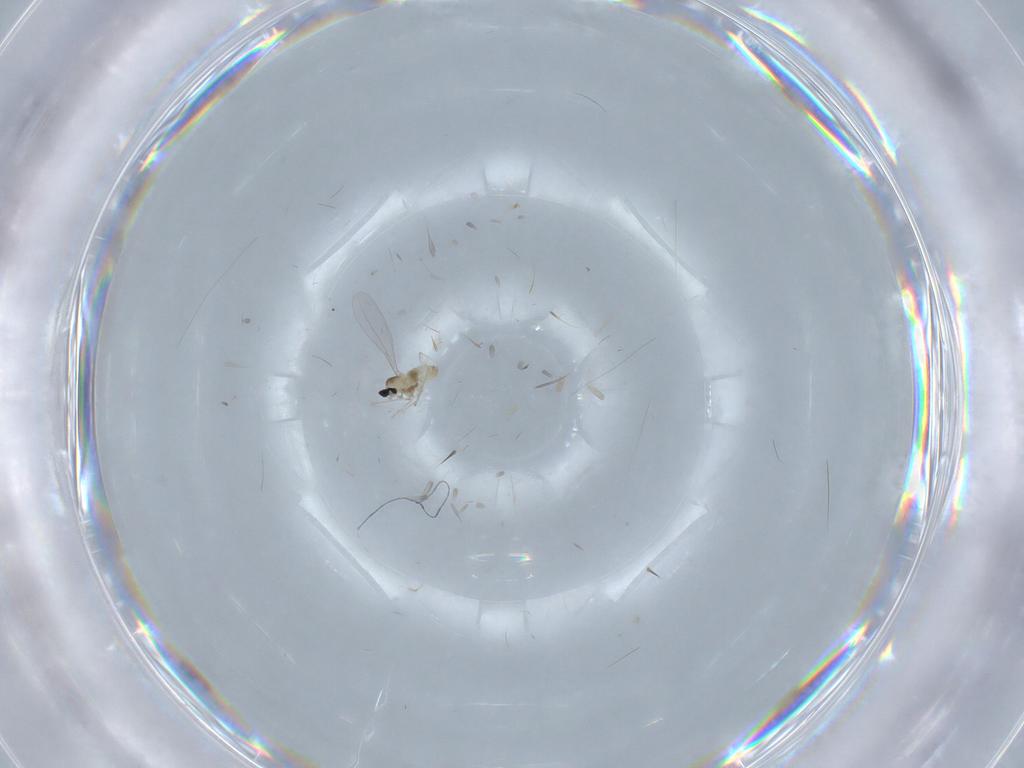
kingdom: Animalia
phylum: Arthropoda
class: Insecta
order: Diptera
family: Cecidomyiidae
